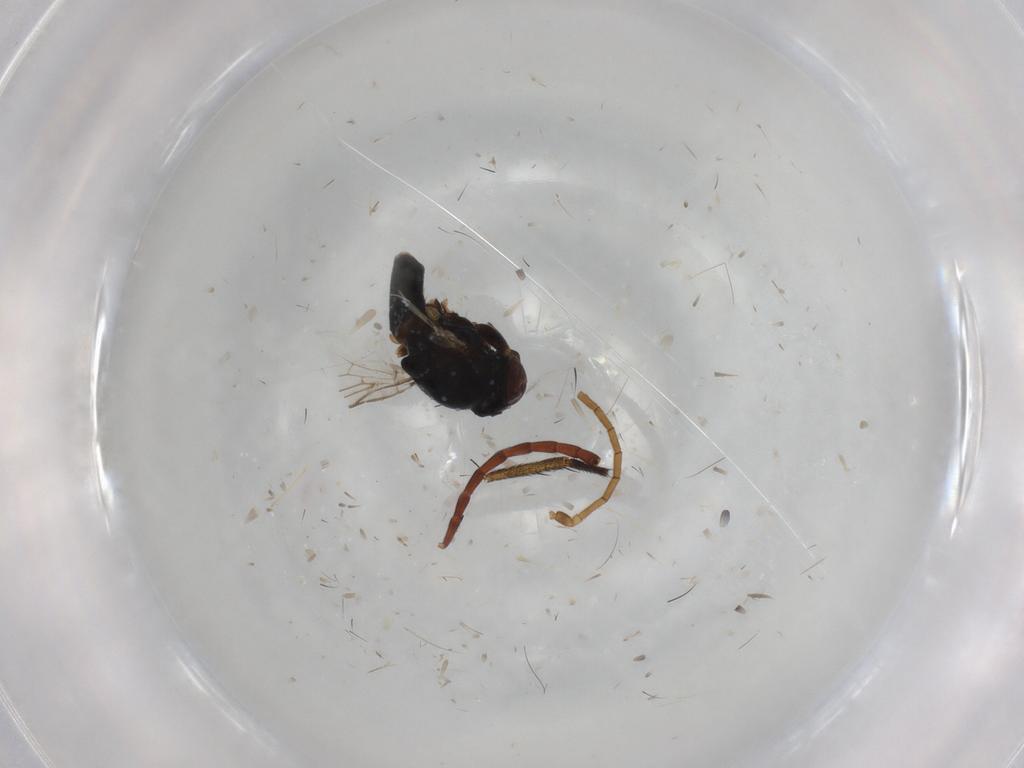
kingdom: Animalia
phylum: Arthropoda
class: Insecta
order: Diptera
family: Chloropidae
